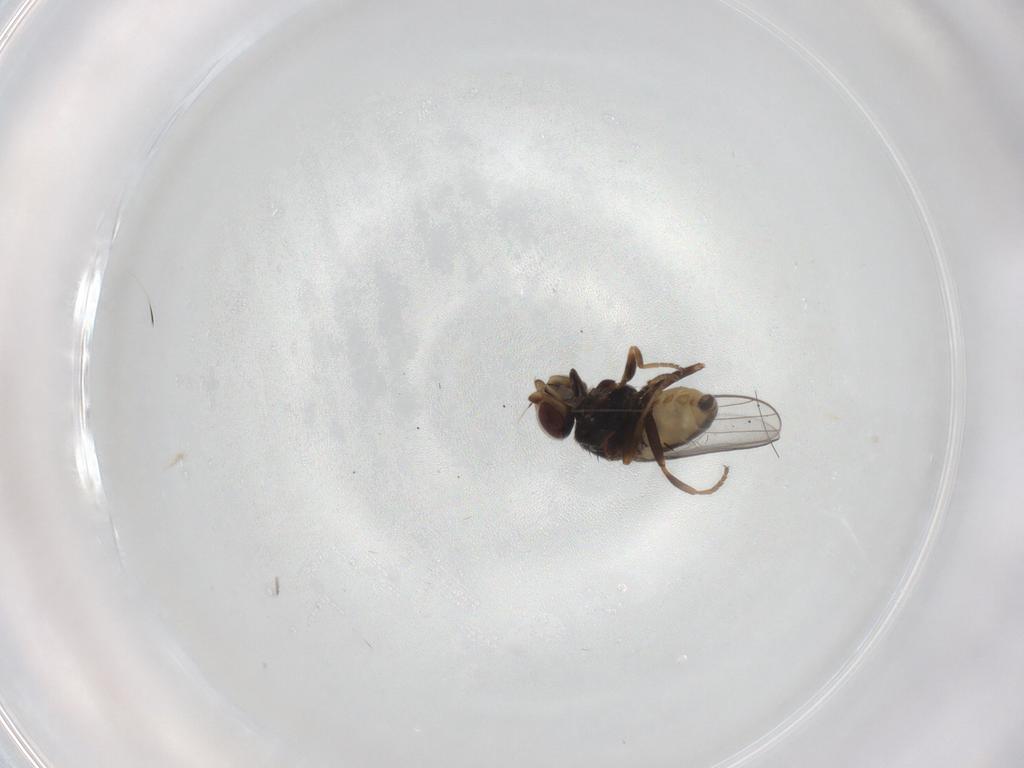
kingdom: Animalia
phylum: Arthropoda
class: Insecta
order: Diptera
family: Chloropidae
